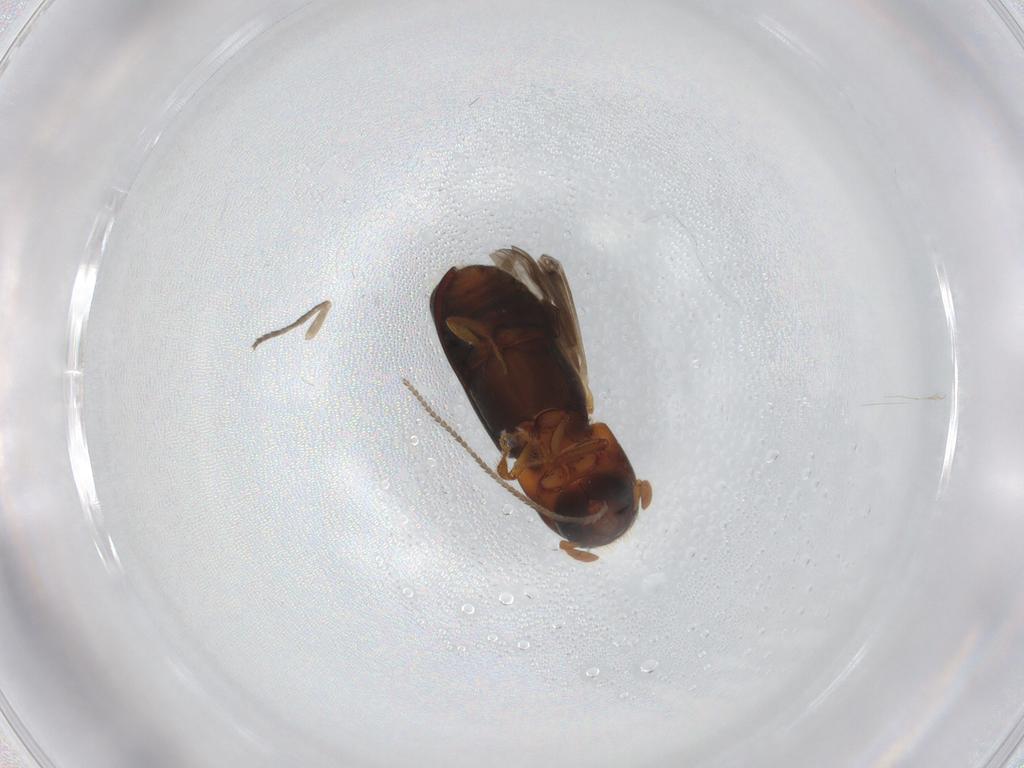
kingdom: Animalia
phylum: Arthropoda
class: Insecta
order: Coleoptera
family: Curculionidae
